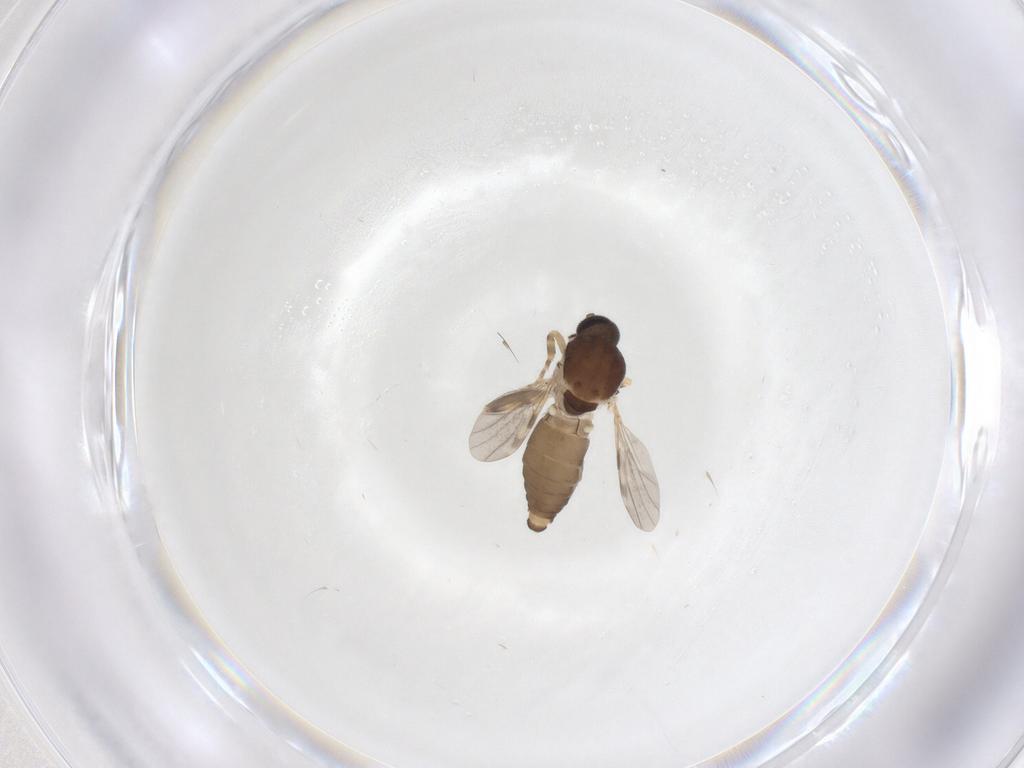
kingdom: Animalia
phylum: Arthropoda
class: Insecta
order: Diptera
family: Ceratopogonidae
